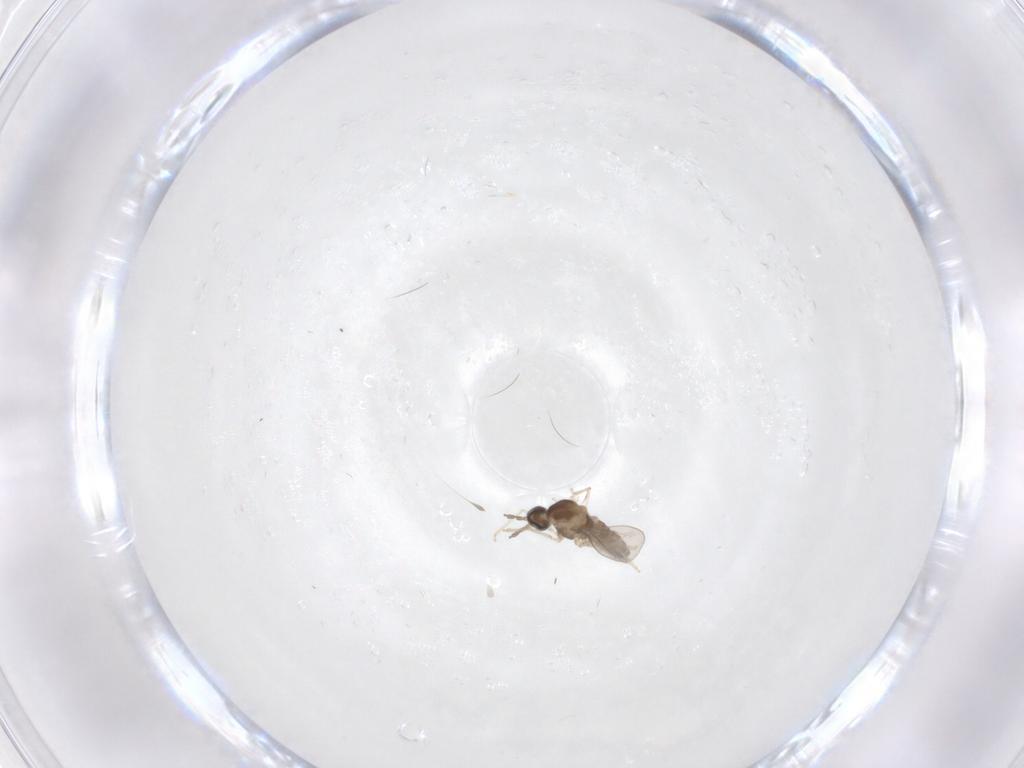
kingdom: Animalia
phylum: Arthropoda
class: Insecta
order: Diptera
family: Cecidomyiidae
